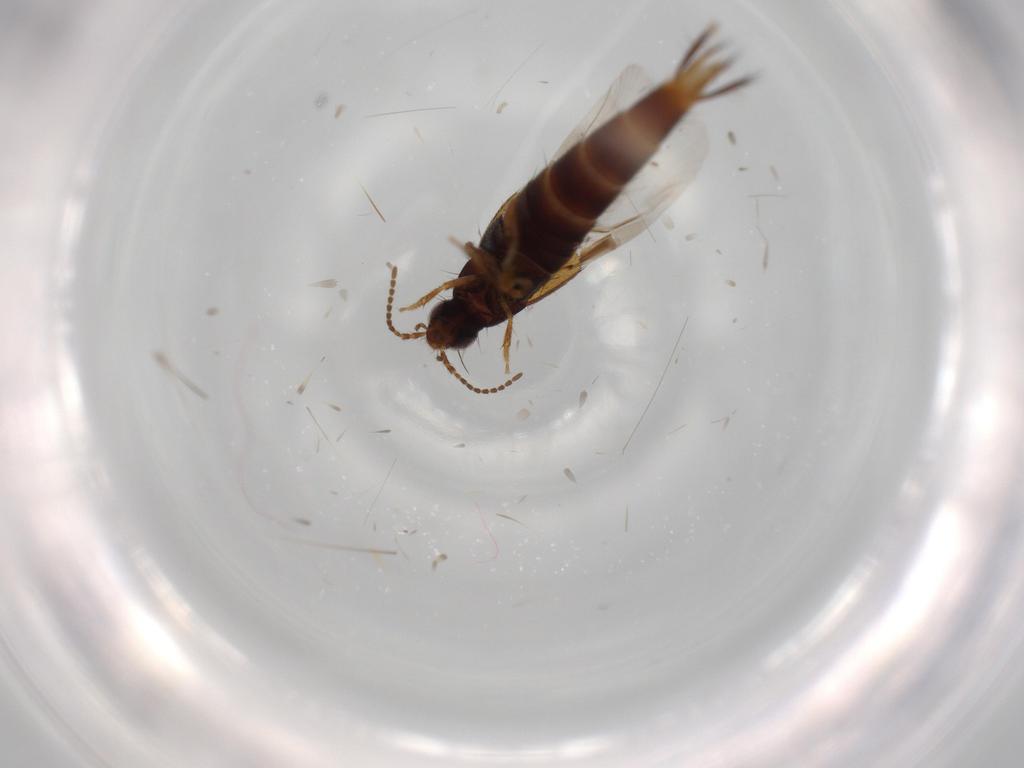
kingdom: Animalia
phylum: Arthropoda
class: Insecta
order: Coleoptera
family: Staphylinidae
